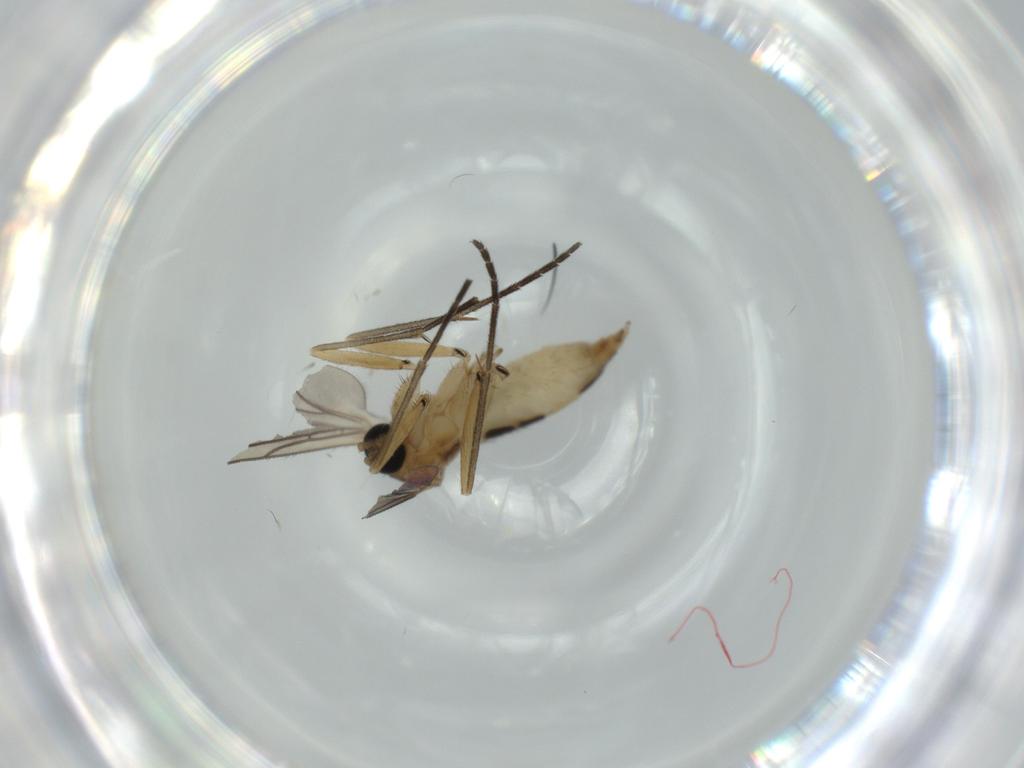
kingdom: Animalia
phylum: Arthropoda
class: Insecta
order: Diptera
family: Sciaridae
